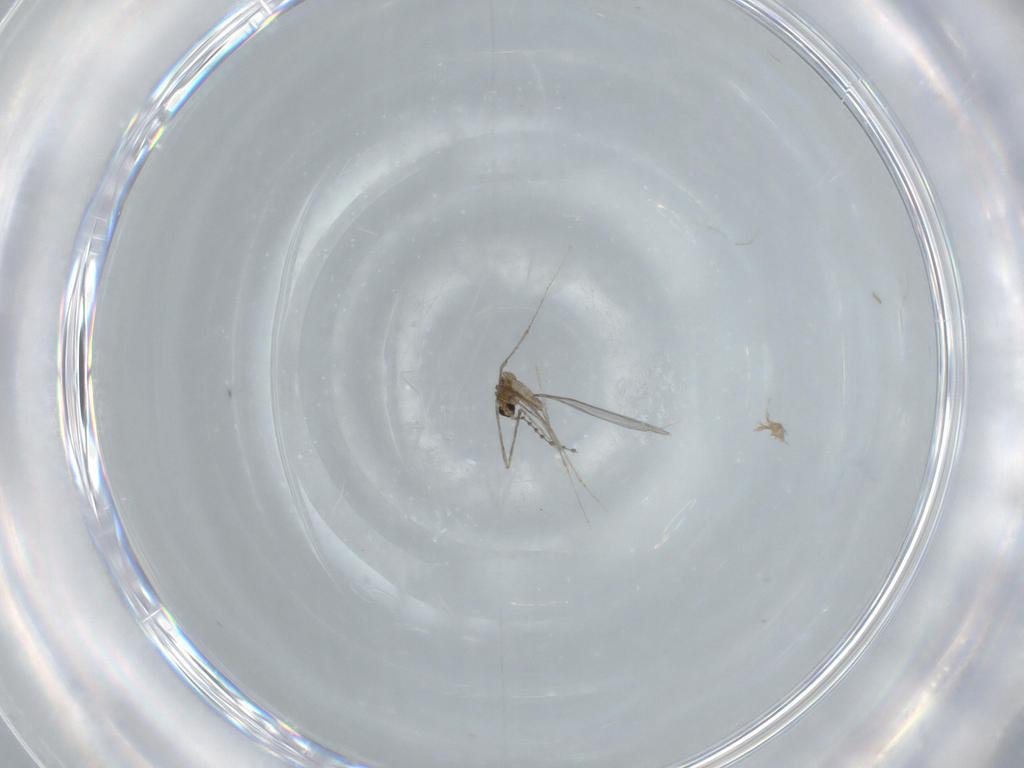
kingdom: Animalia
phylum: Arthropoda
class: Insecta
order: Diptera
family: Cecidomyiidae
